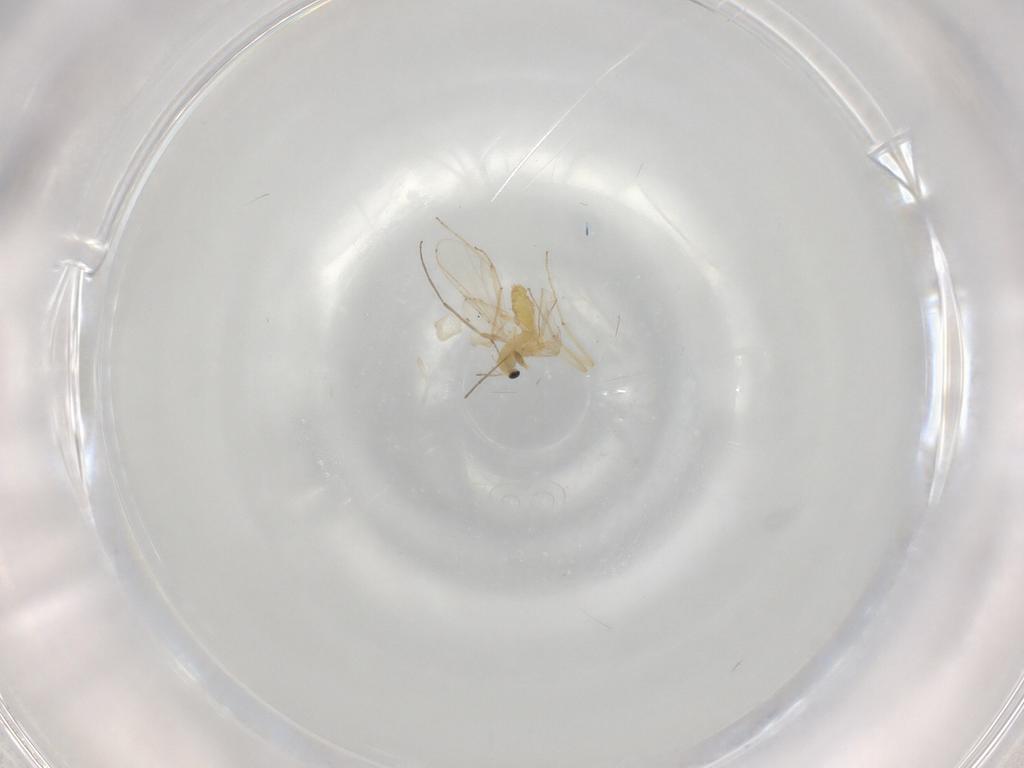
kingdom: Animalia
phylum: Arthropoda
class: Insecta
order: Diptera
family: Chironomidae
